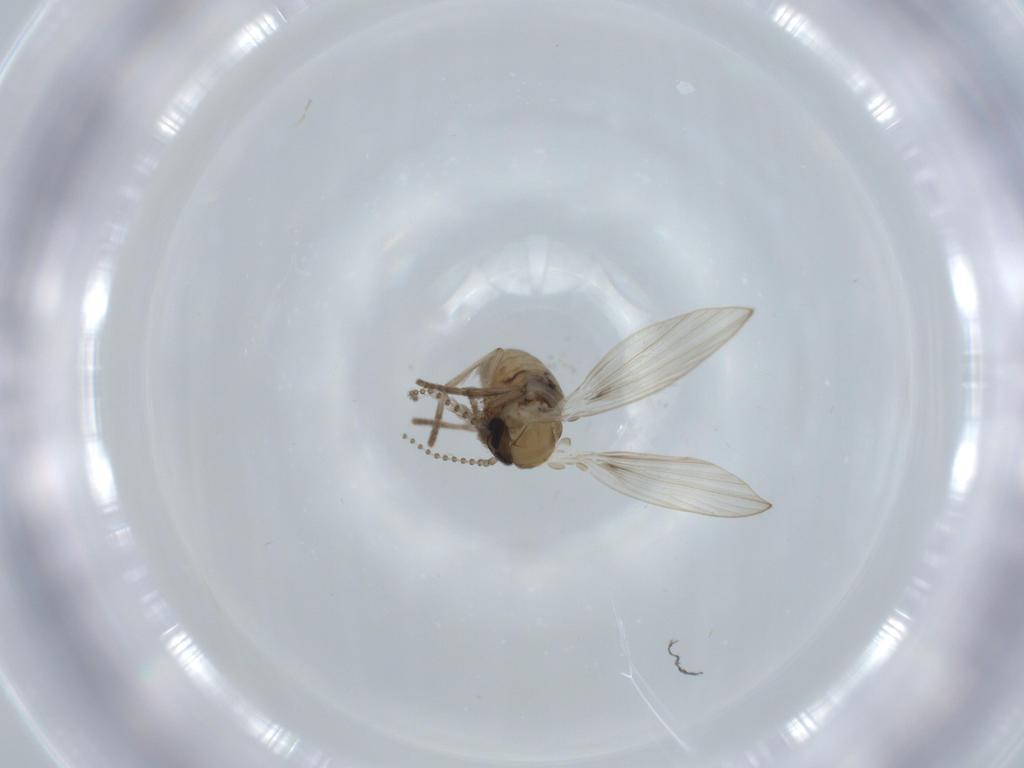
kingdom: Animalia
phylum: Arthropoda
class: Insecta
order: Diptera
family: Psychodidae
